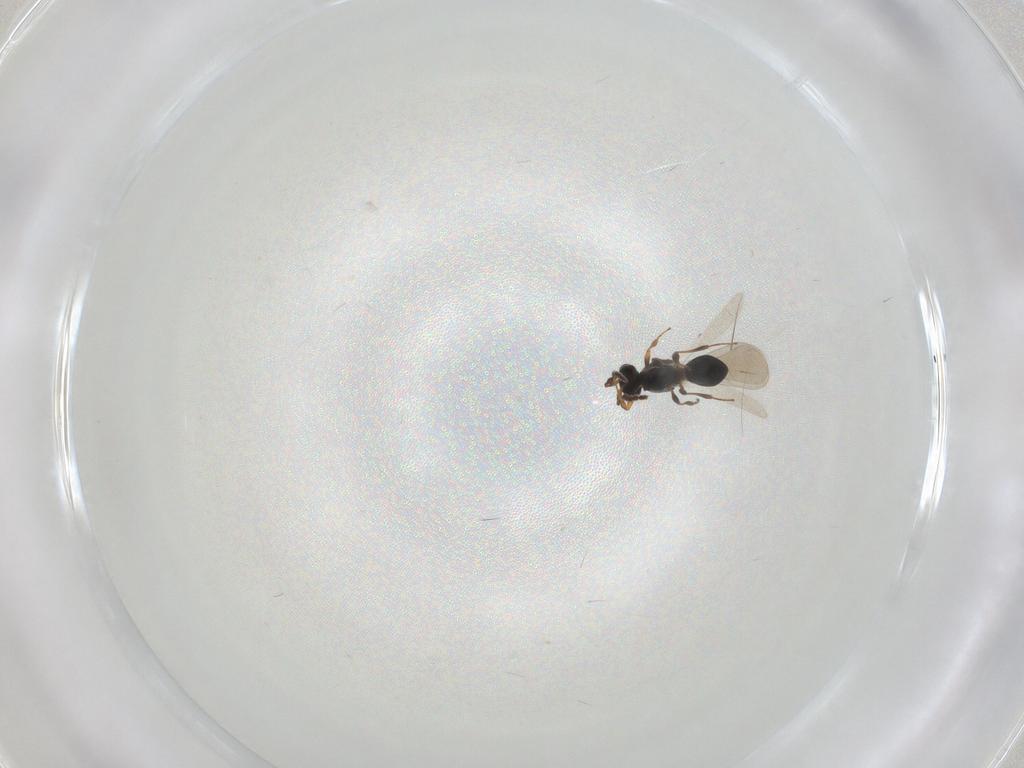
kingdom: Animalia
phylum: Arthropoda
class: Insecta
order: Hymenoptera
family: Platygastridae
